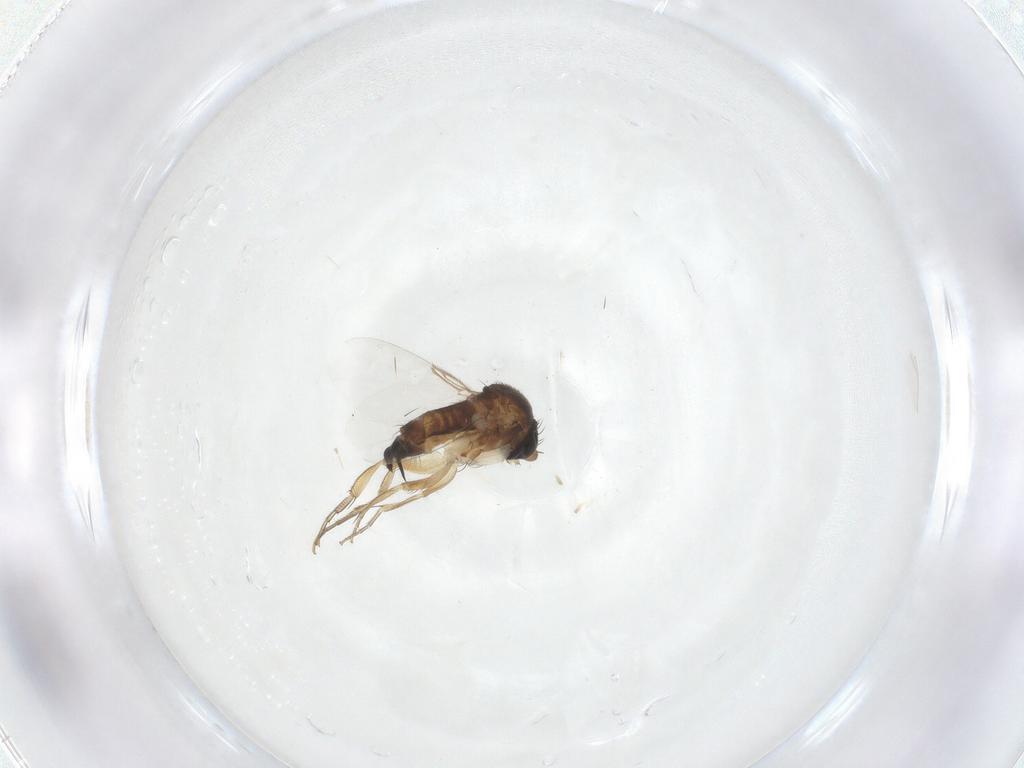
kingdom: Animalia
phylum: Arthropoda
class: Insecta
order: Diptera
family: Phoridae
